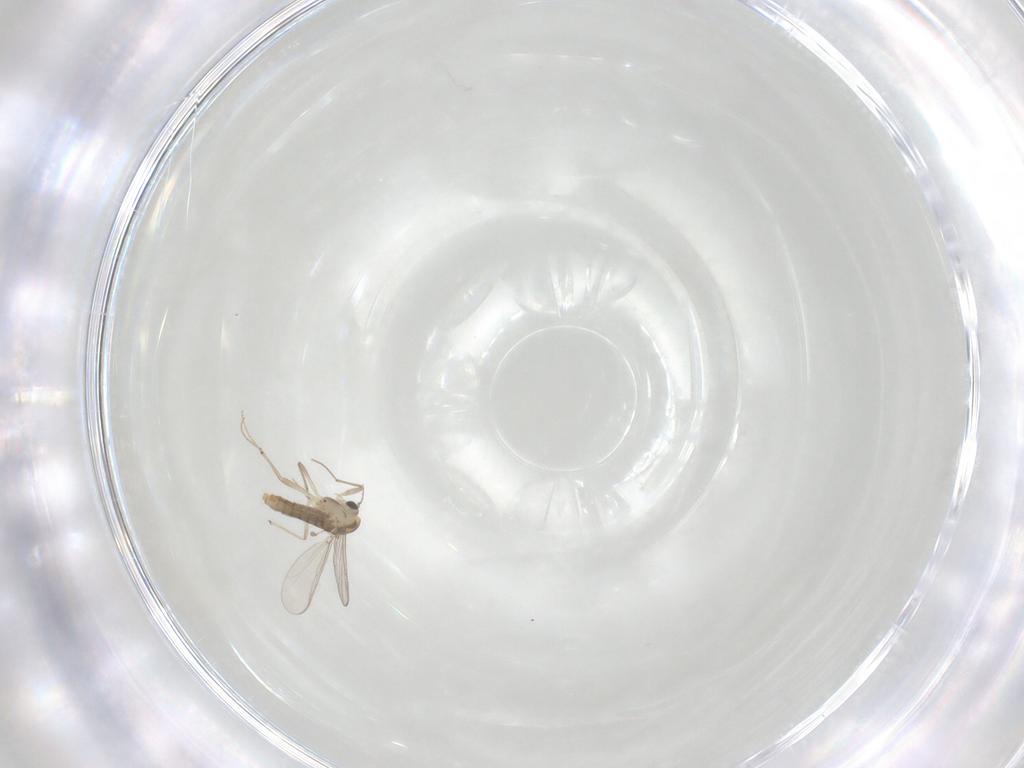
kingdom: Animalia
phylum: Arthropoda
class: Insecta
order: Diptera
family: Chironomidae
